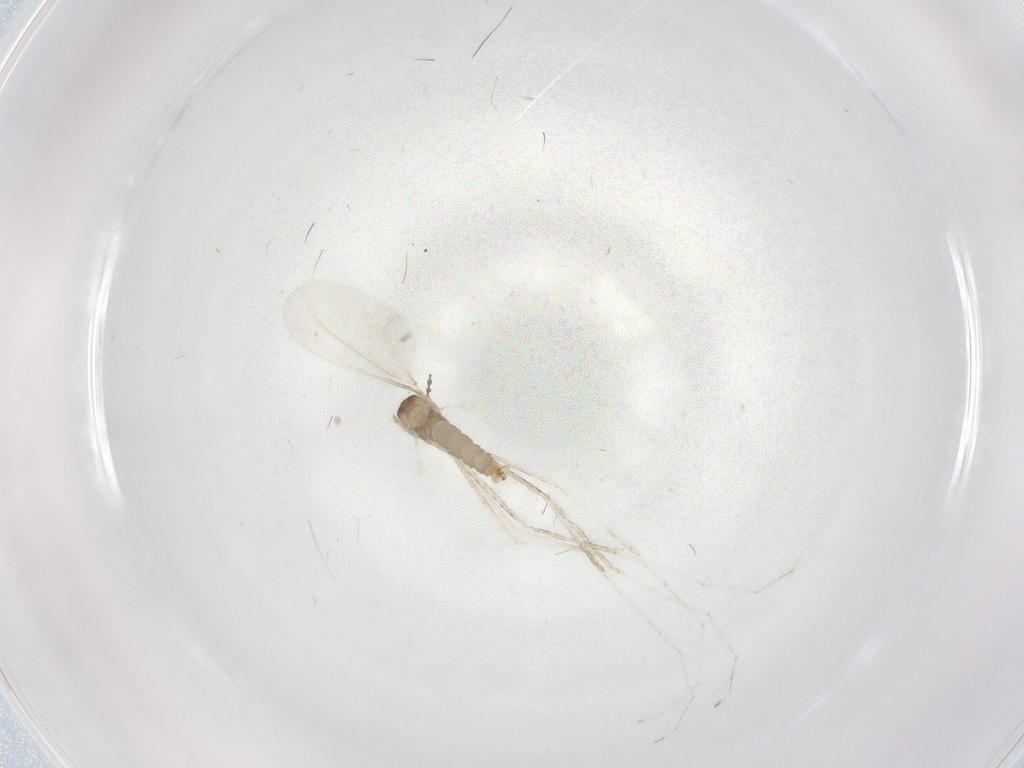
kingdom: Animalia
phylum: Arthropoda
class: Insecta
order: Diptera
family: Cecidomyiidae
